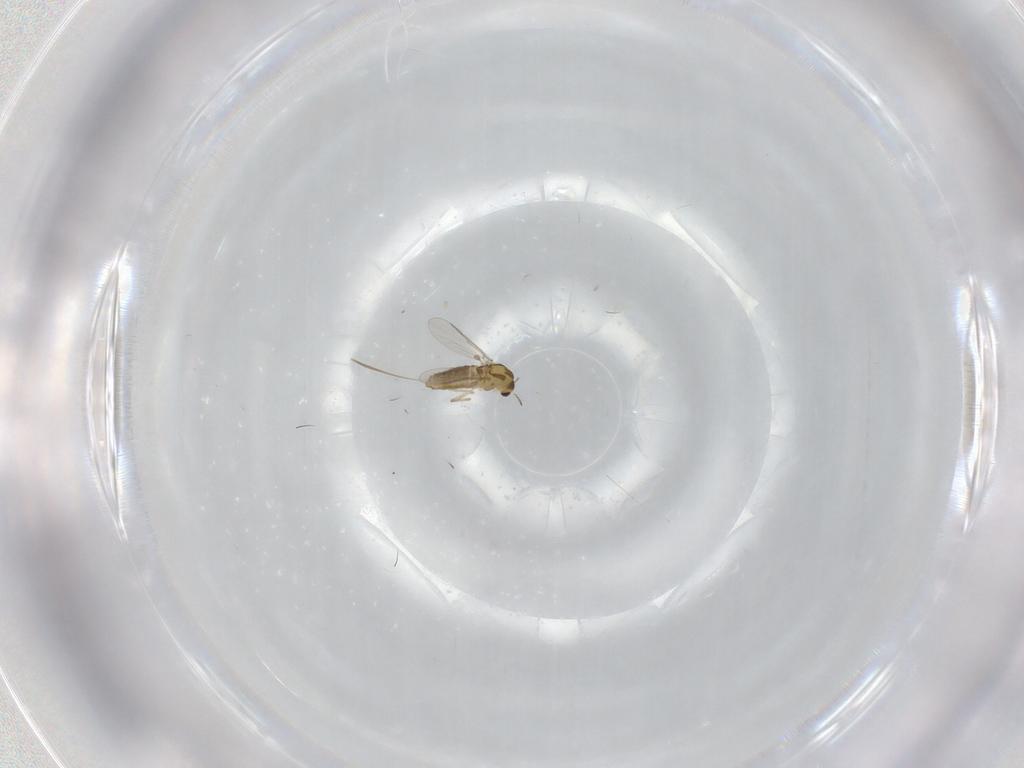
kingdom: Animalia
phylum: Arthropoda
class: Insecta
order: Diptera
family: Chironomidae
